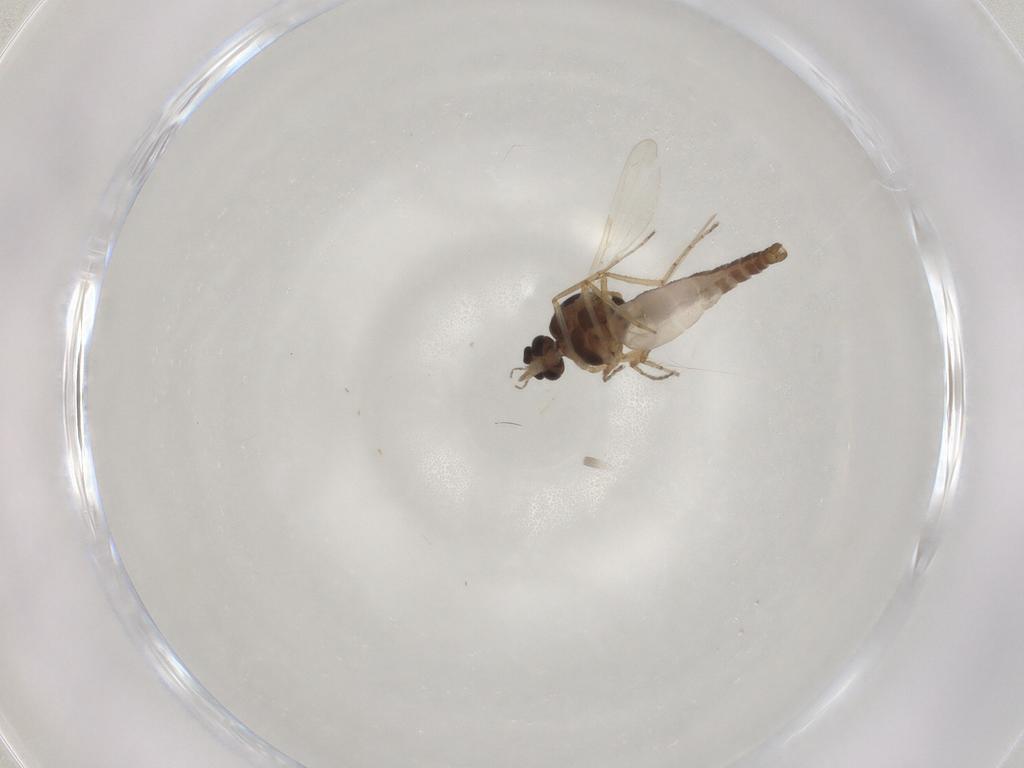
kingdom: Animalia
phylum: Arthropoda
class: Insecta
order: Diptera
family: Ceratopogonidae
